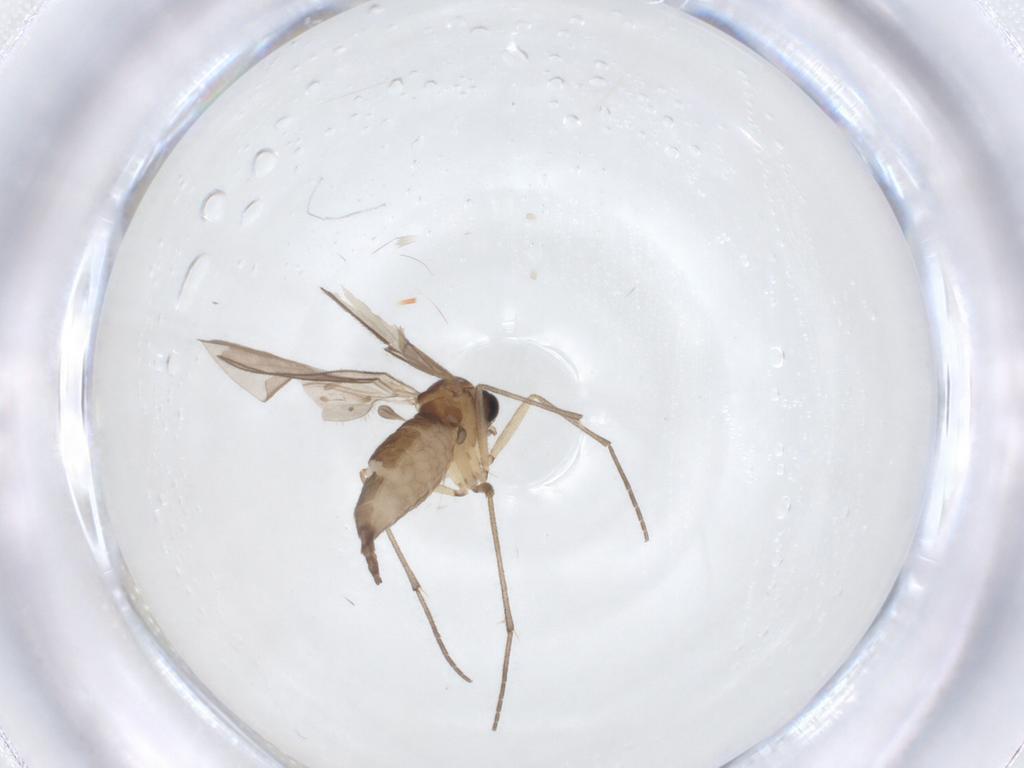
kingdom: Animalia
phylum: Arthropoda
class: Insecta
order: Diptera
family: Sciaridae
